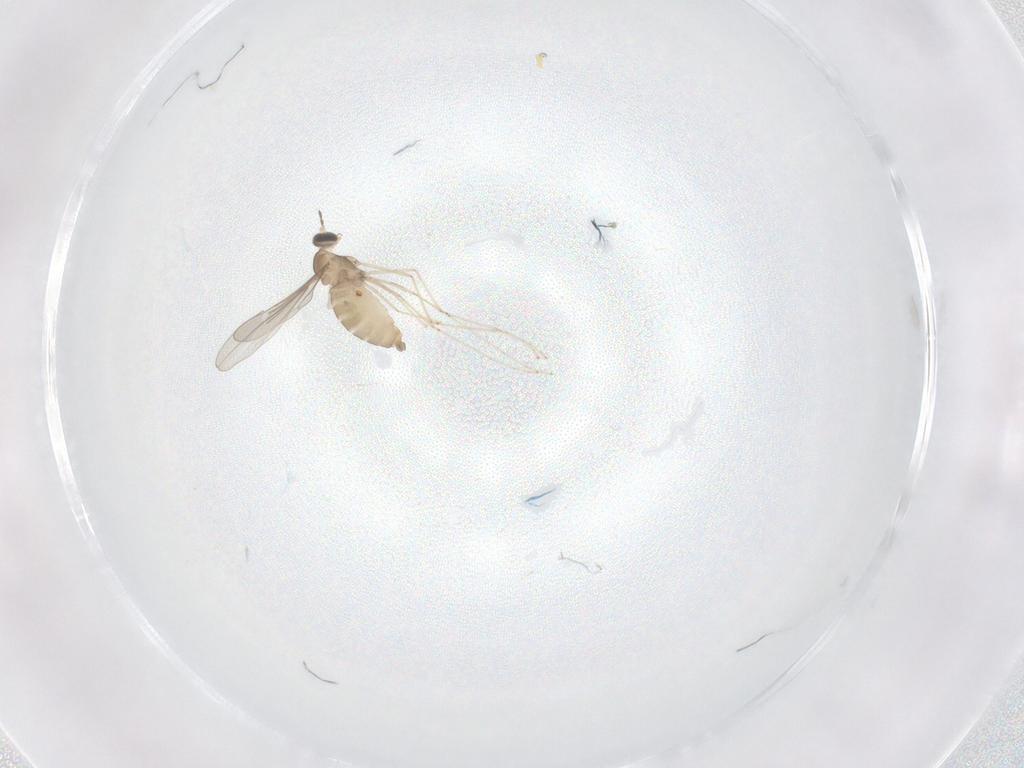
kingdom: Animalia
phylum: Arthropoda
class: Insecta
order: Diptera
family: Cecidomyiidae
